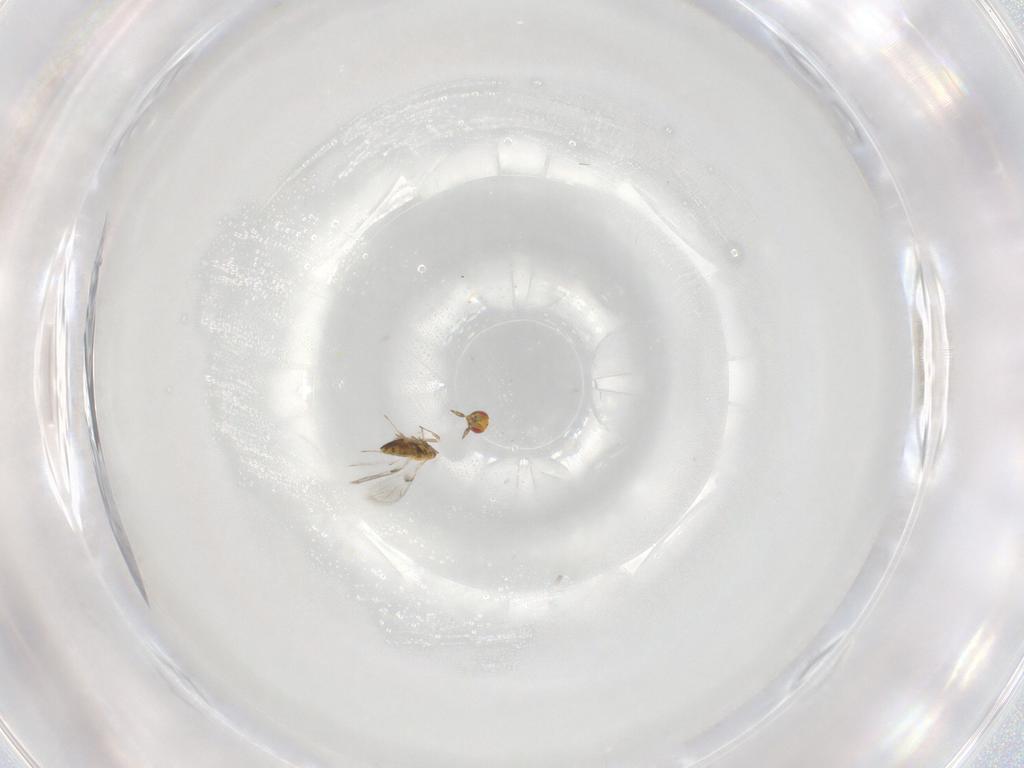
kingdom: Animalia
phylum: Arthropoda
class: Insecta
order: Hymenoptera
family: Trichogrammatidae
